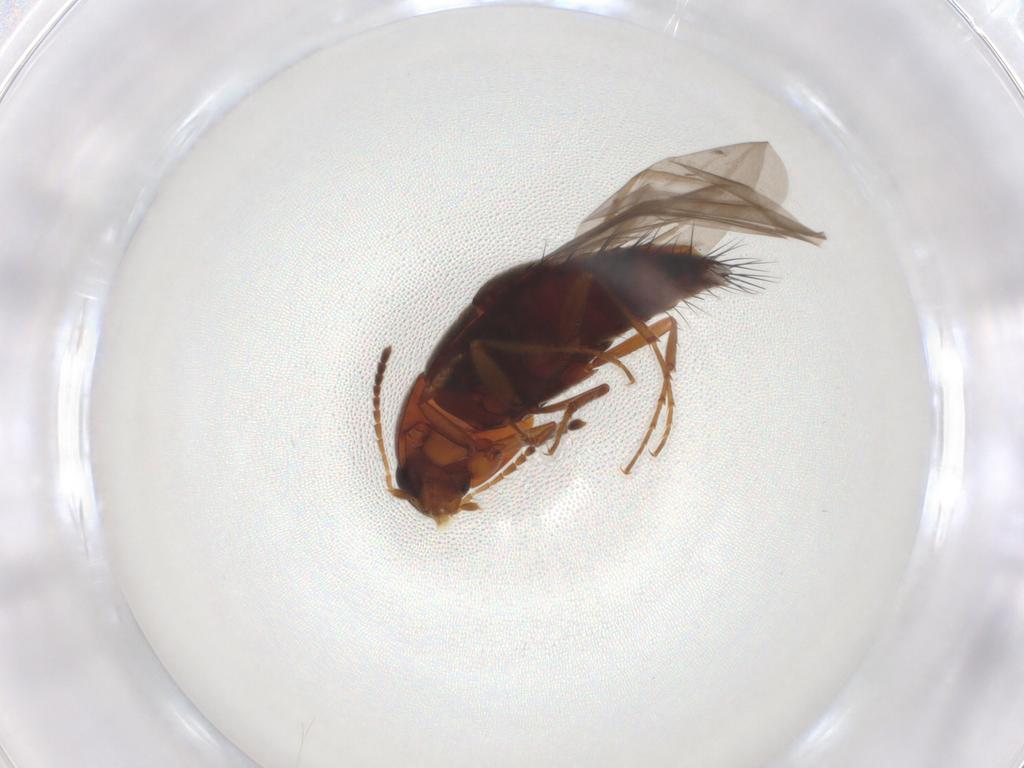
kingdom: Animalia
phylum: Arthropoda
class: Insecta
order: Coleoptera
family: Staphylinidae
